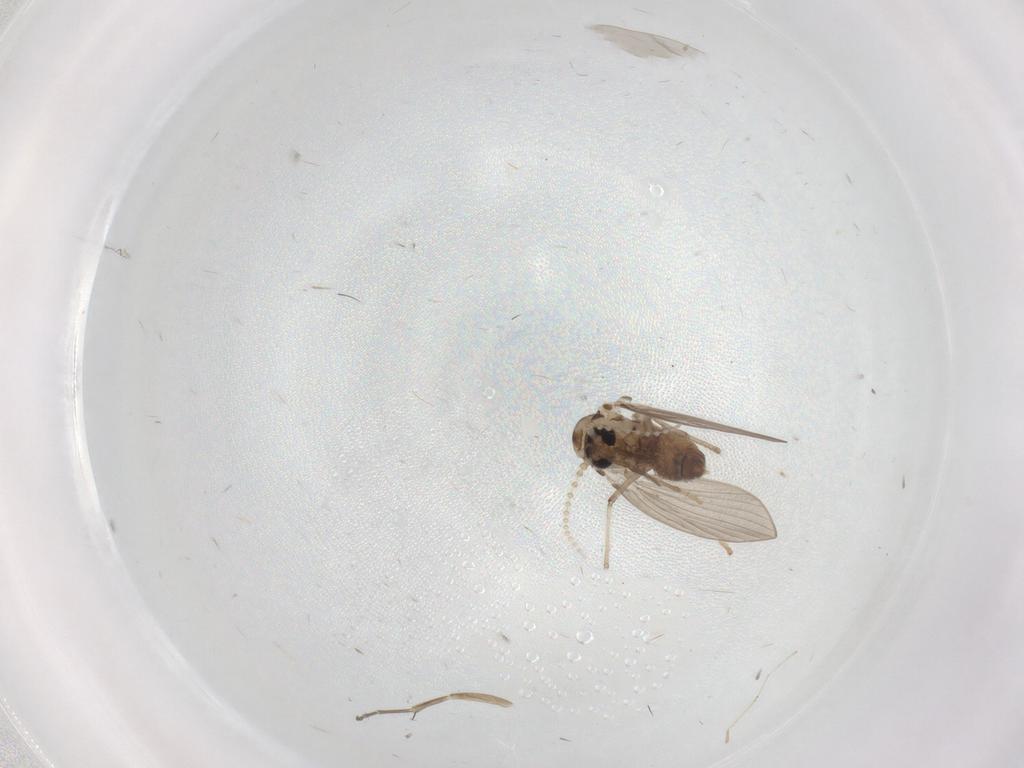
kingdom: Animalia
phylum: Arthropoda
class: Insecta
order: Diptera
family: Psychodidae
